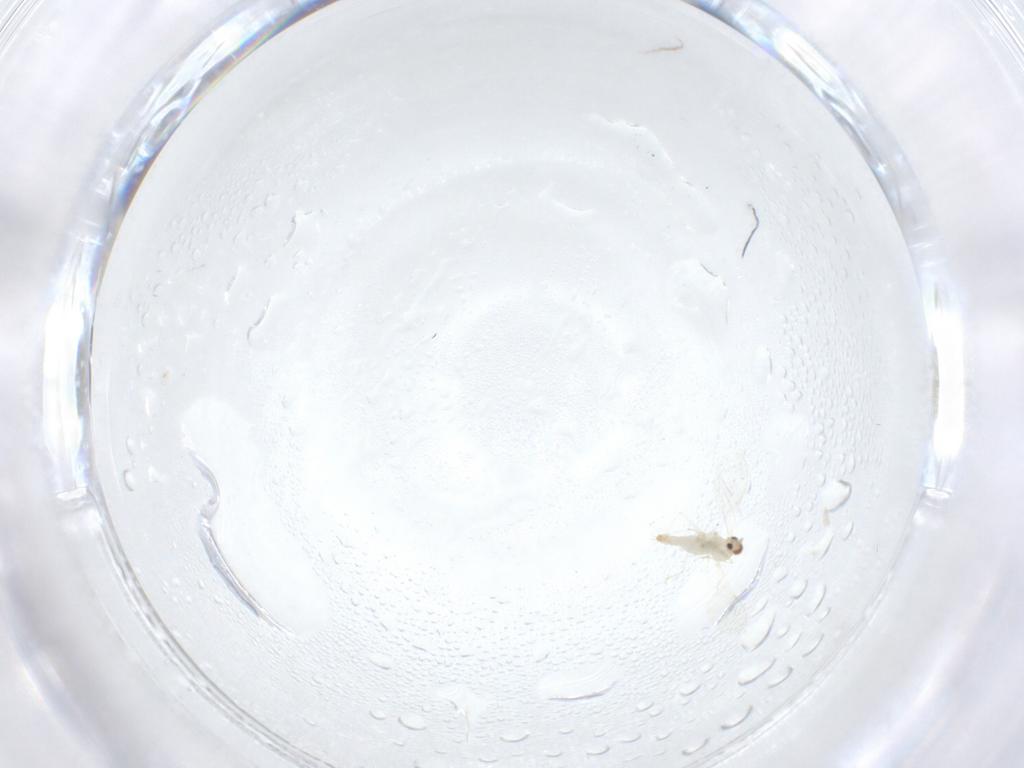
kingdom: Animalia
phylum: Arthropoda
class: Insecta
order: Diptera
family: Cecidomyiidae
